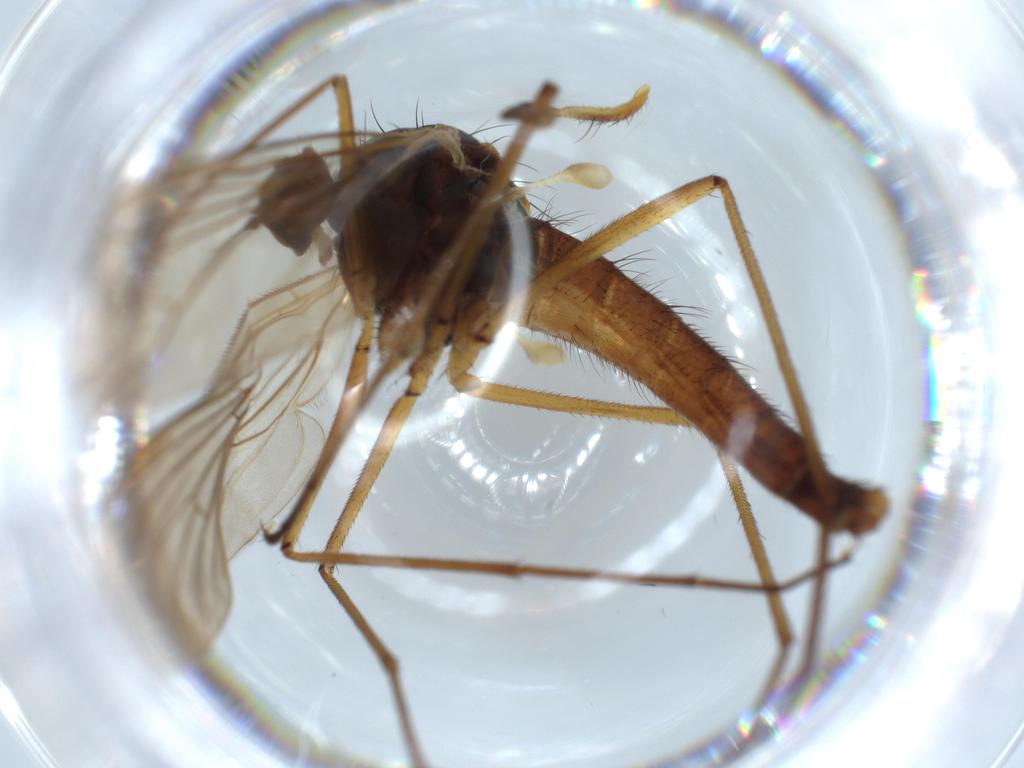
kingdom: Animalia
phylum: Arthropoda
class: Insecta
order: Diptera
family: Brachystomatidae
